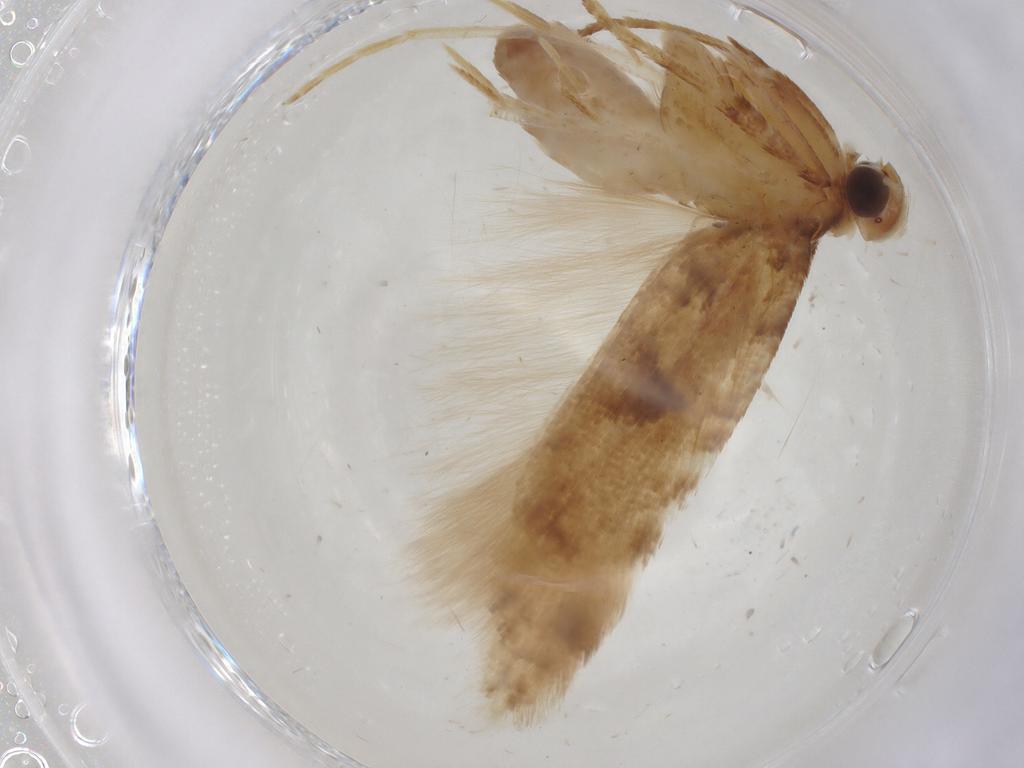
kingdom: Animalia
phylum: Arthropoda
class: Insecta
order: Lepidoptera
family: Gelechiidae
